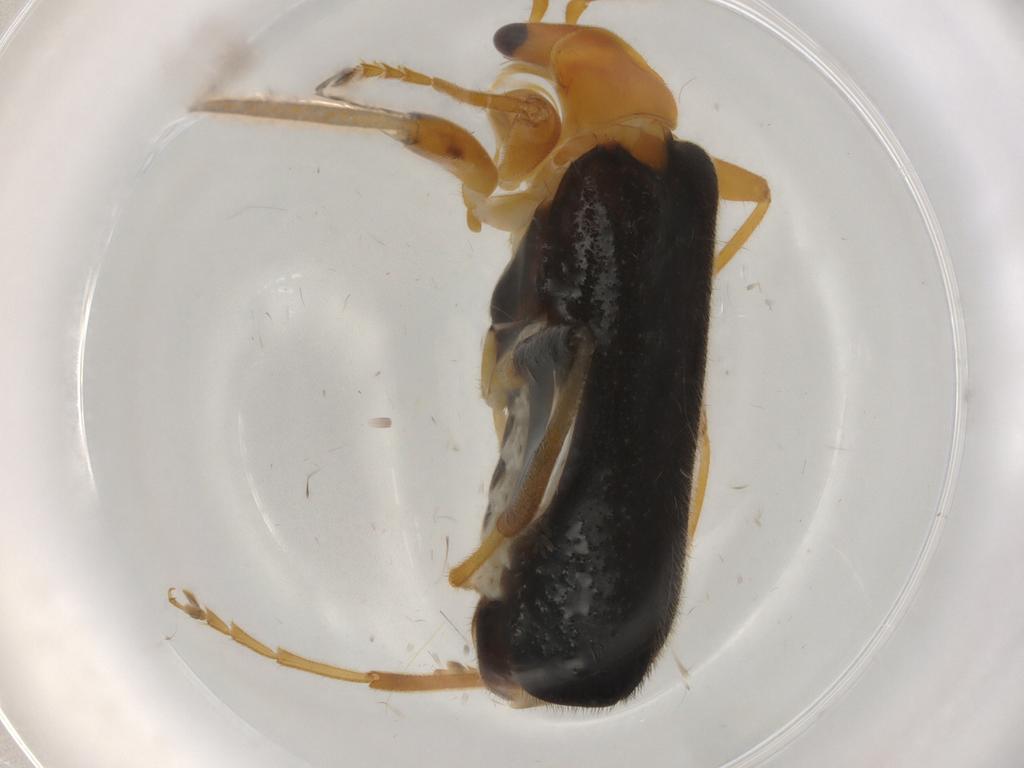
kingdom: Animalia
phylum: Arthropoda
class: Insecta
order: Coleoptera
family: Cantharidae
